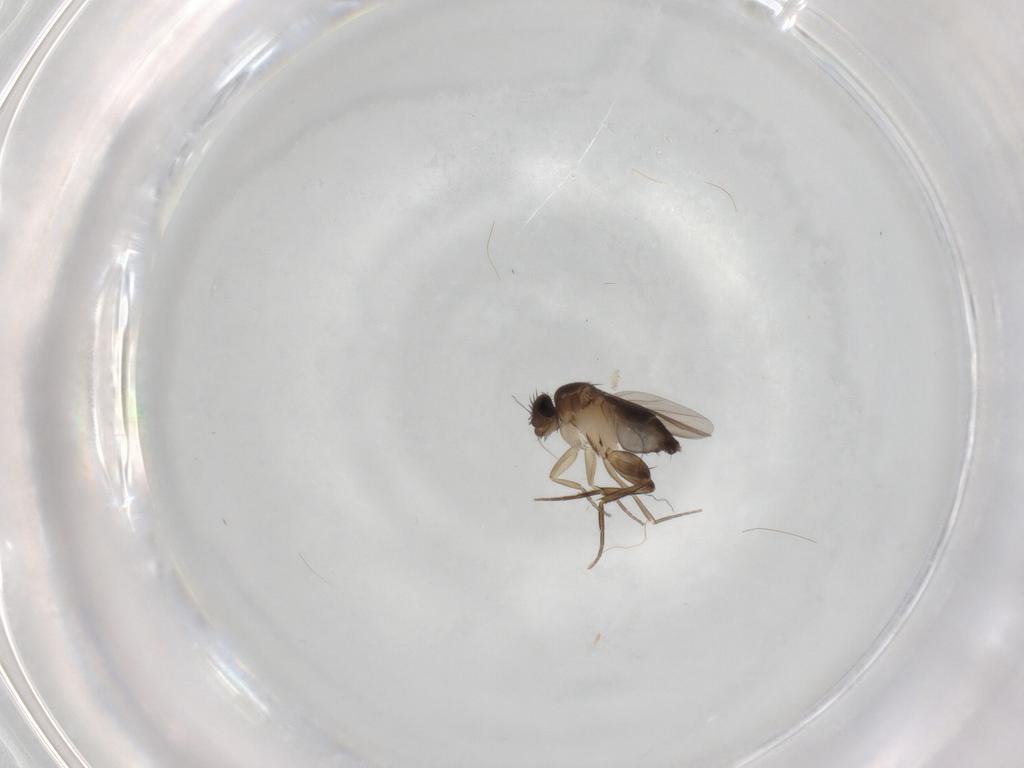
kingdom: Animalia
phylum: Arthropoda
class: Insecta
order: Diptera
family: Phoridae
